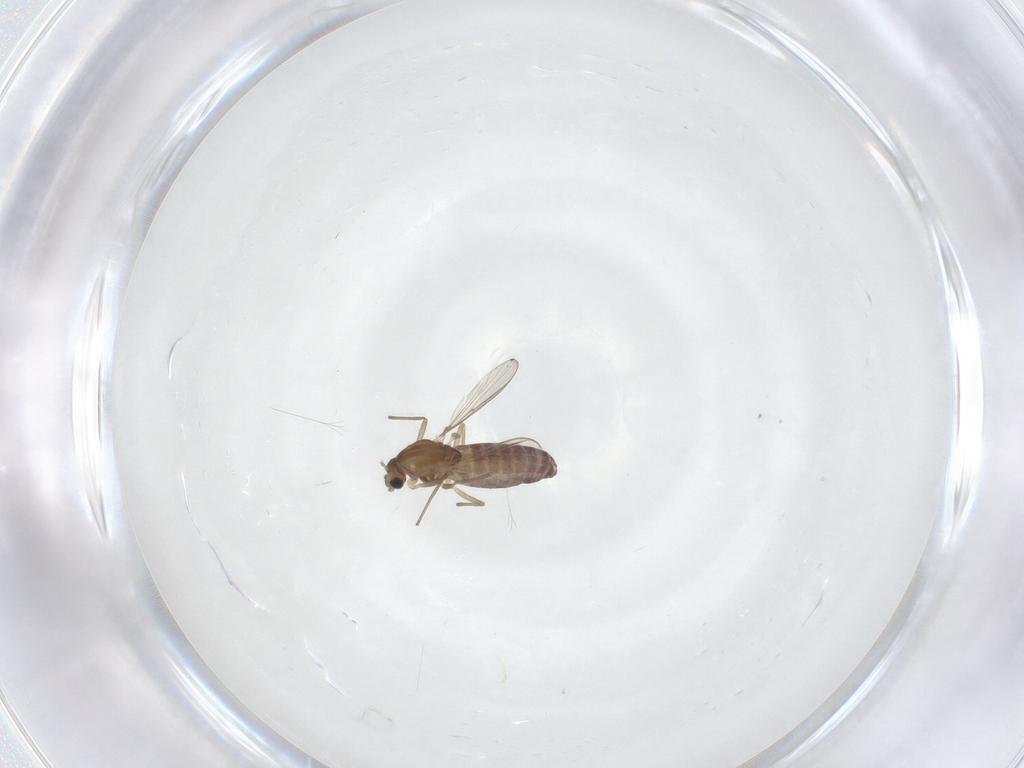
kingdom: Animalia
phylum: Arthropoda
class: Insecta
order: Diptera
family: Chironomidae
